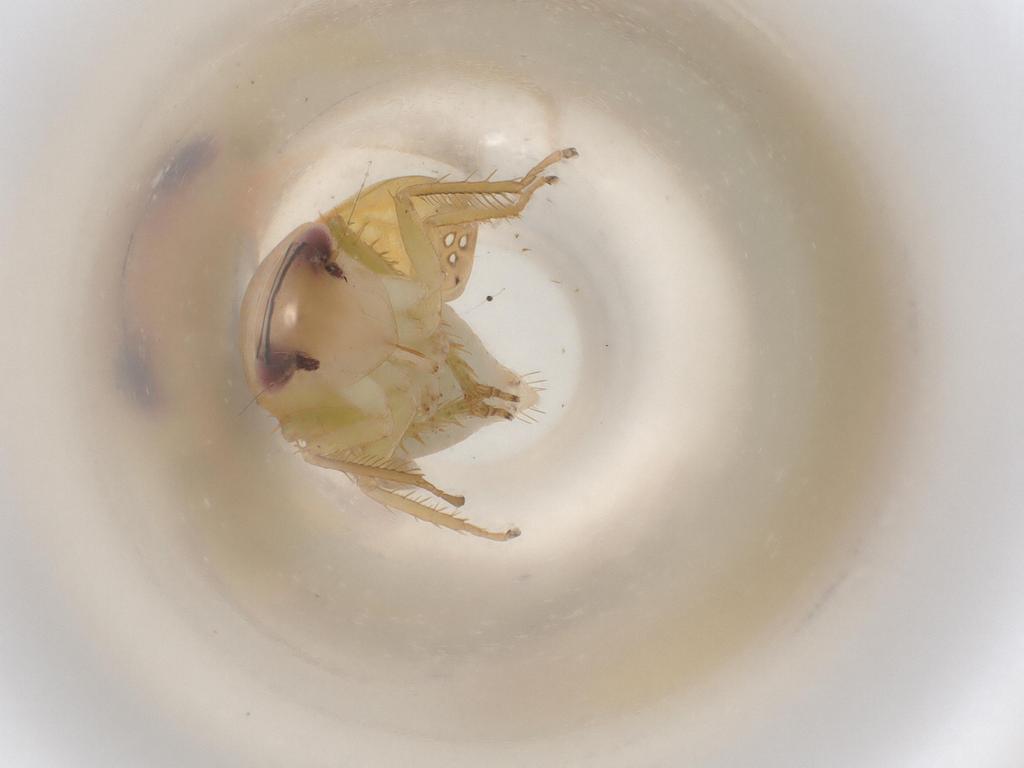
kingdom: Animalia
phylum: Arthropoda
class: Insecta
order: Hemiptera
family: Cicadellidae
